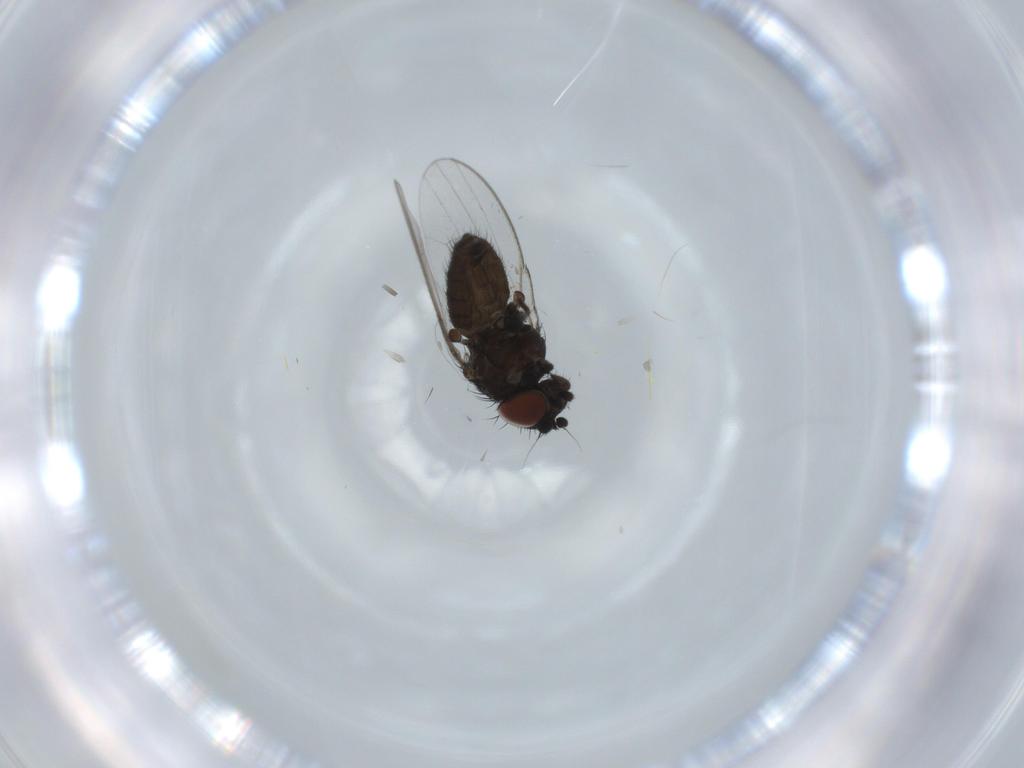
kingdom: Animalia
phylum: Arthropoda
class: Insecta
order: Diptera
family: Milichiidae
